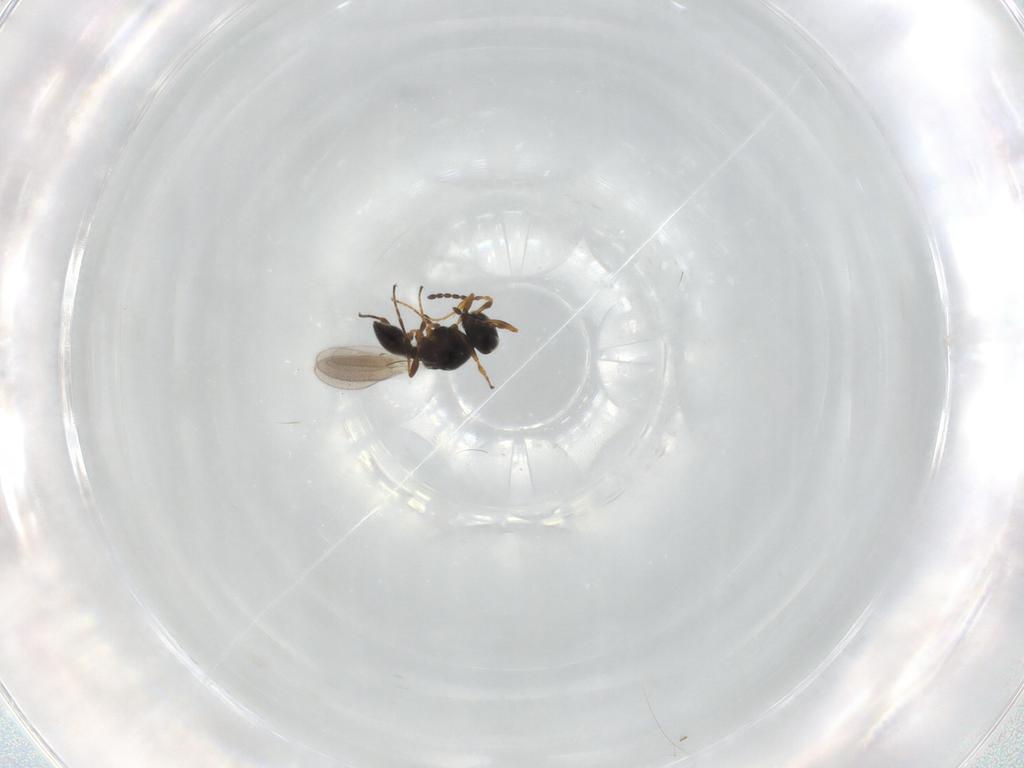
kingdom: Animalia
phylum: Arthropoda
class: Insecta
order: Hymenoptera
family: Platygastridae
